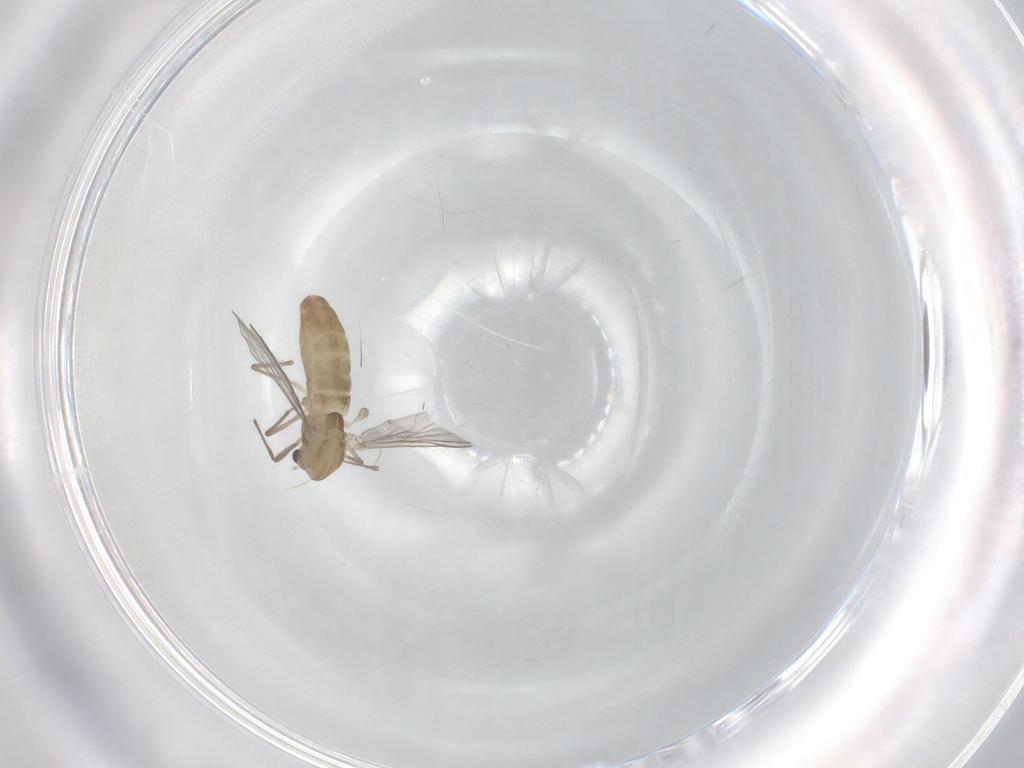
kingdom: Animalia
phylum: Arthropoda
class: Insecta
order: Diptera
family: Chironomidae
